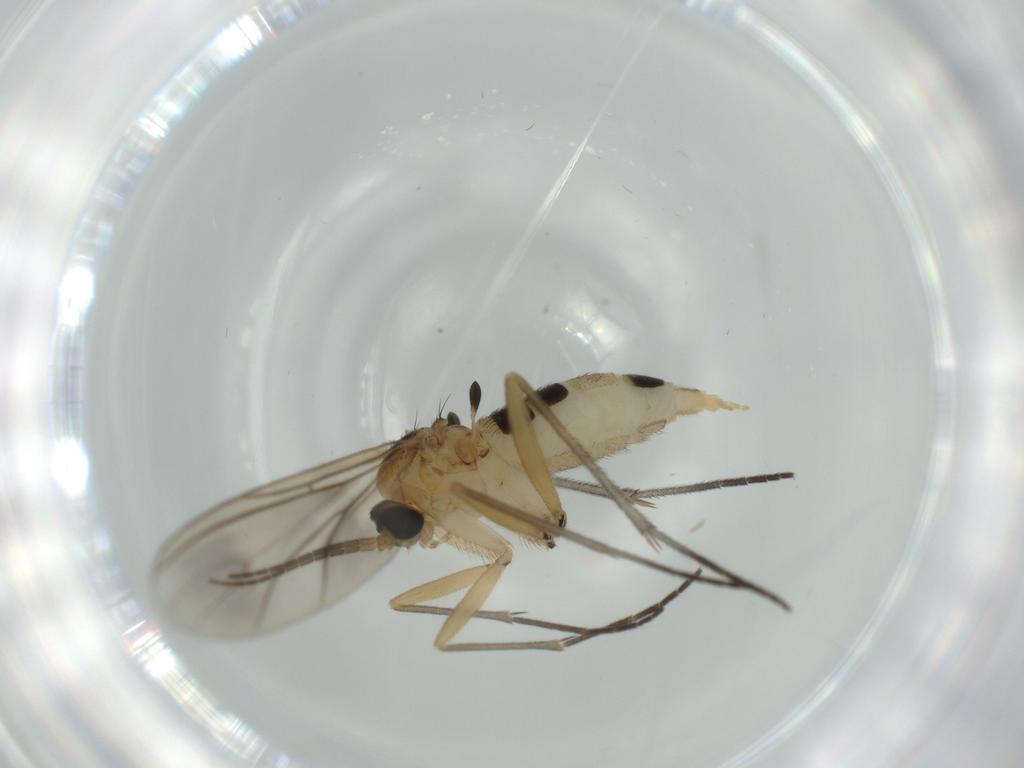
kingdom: Animalia
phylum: Arthropoda
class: Insecta
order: Diptera
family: Sciaridae
